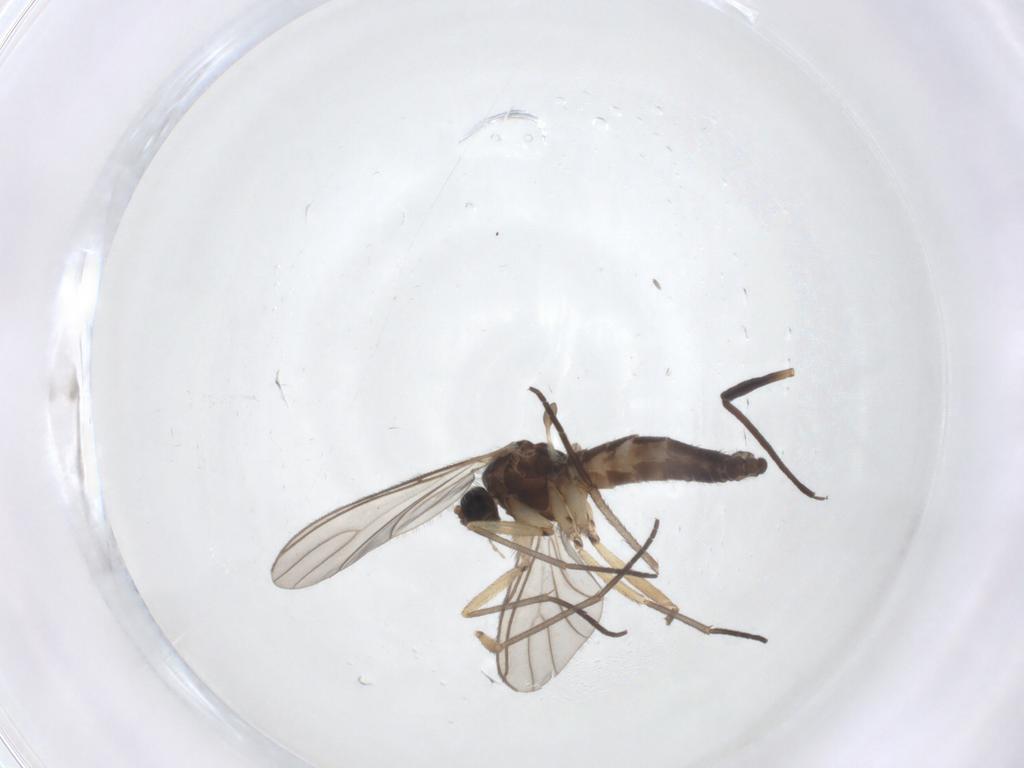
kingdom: Animalia
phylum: Arthropoda
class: Insecta
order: Diptera
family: Sciaridae
